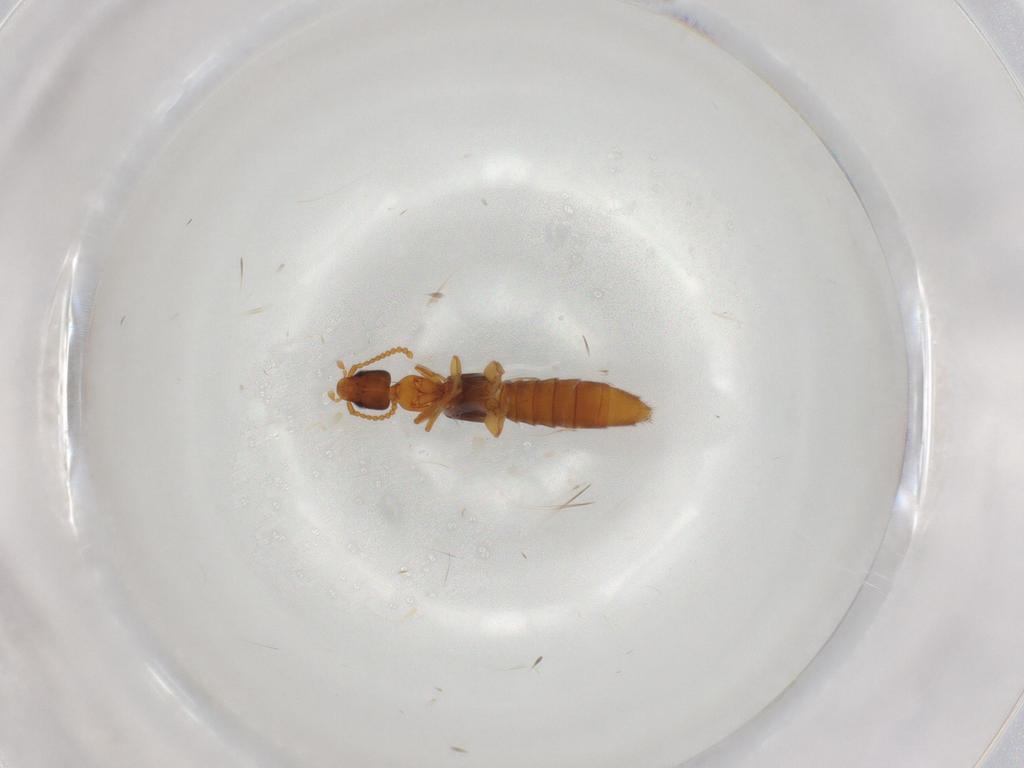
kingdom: Animalia
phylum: Arthropoda
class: Insecta
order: Coleoptera
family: Staphylinidae
